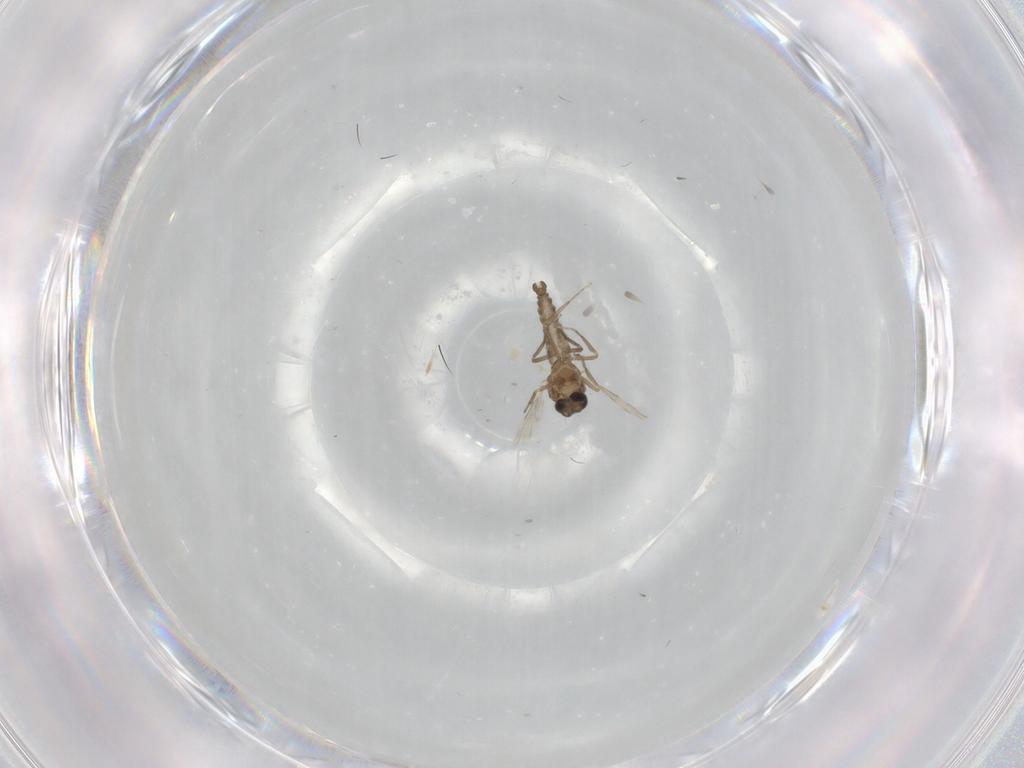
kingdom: Animalia
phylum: Arthropoda
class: Insecta
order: Diptera
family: Ceratopogonidae
